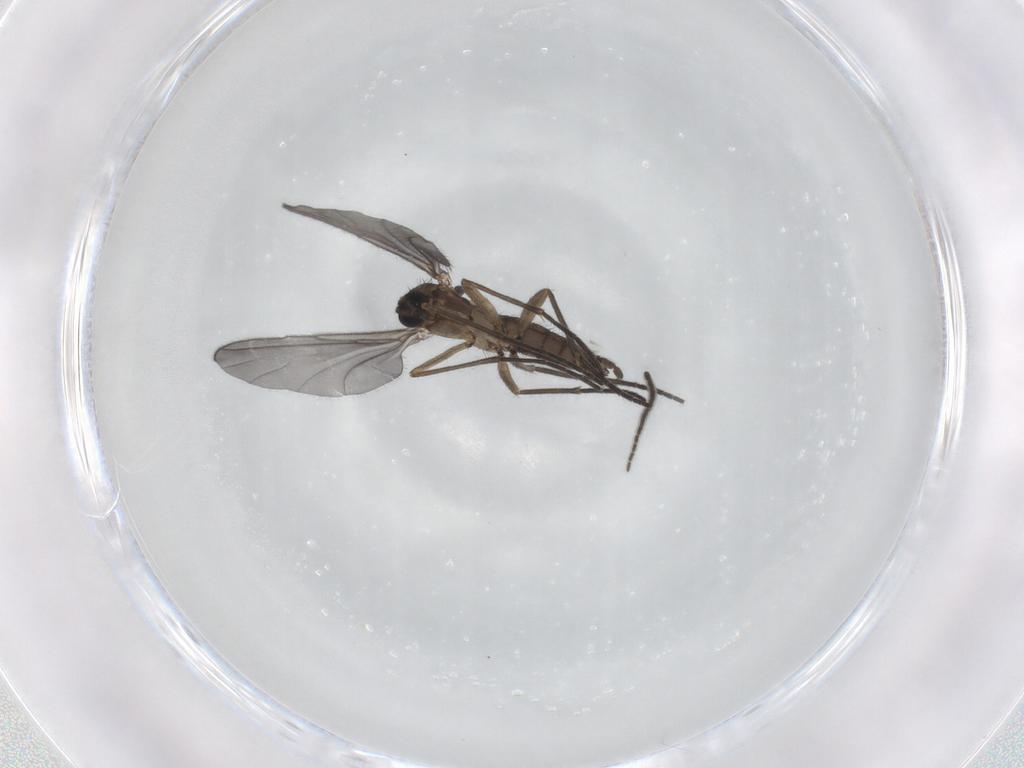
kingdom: Animalia
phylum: Arthropoda
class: Insecta
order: Diptera
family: Sciaridae
